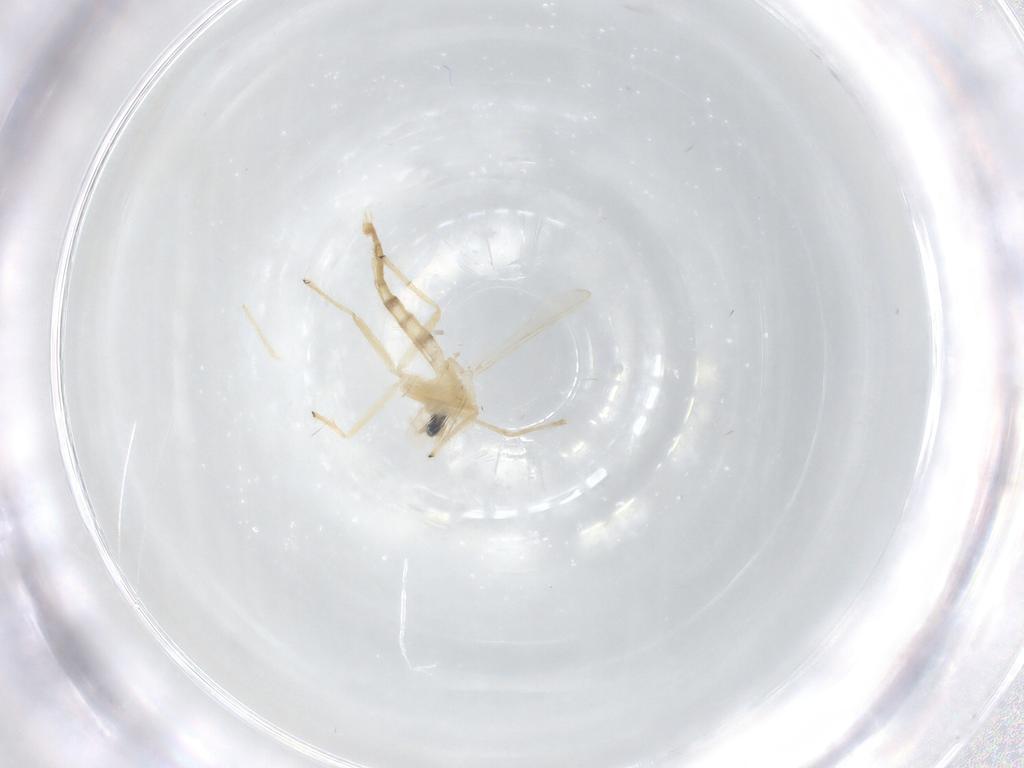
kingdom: Animalia
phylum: Arthropoda
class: Insecta
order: Diptera
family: Chironomidae
